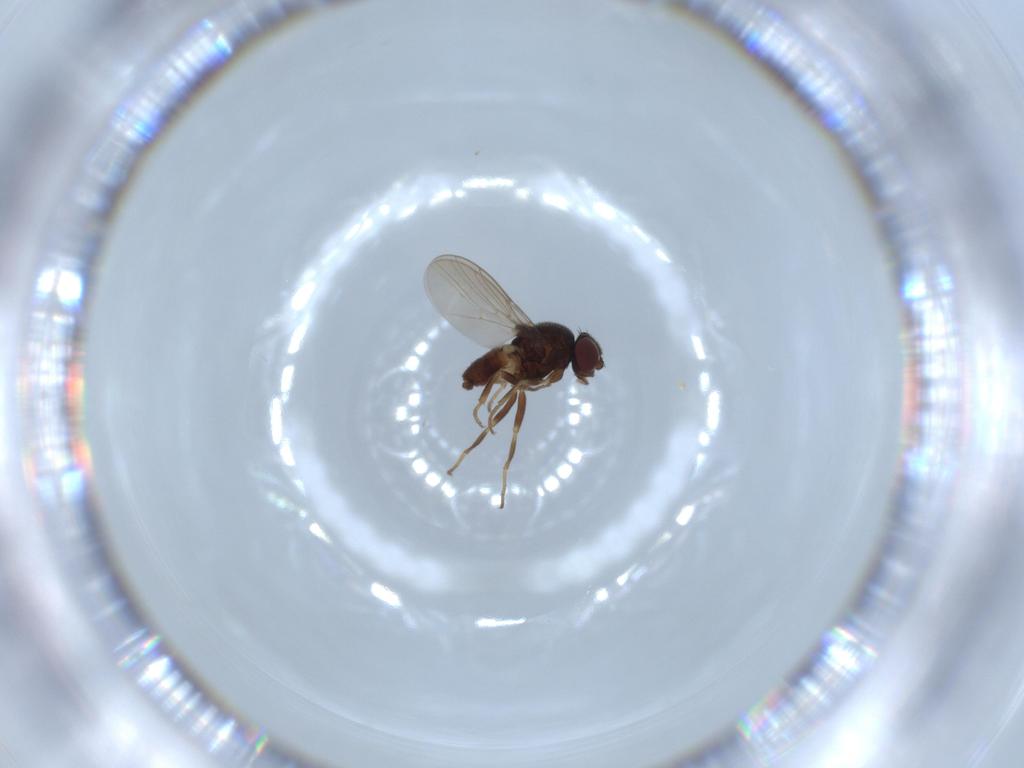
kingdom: Animalia
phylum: Arthropoda
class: Insecta
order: Diptera
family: Chloropidae
